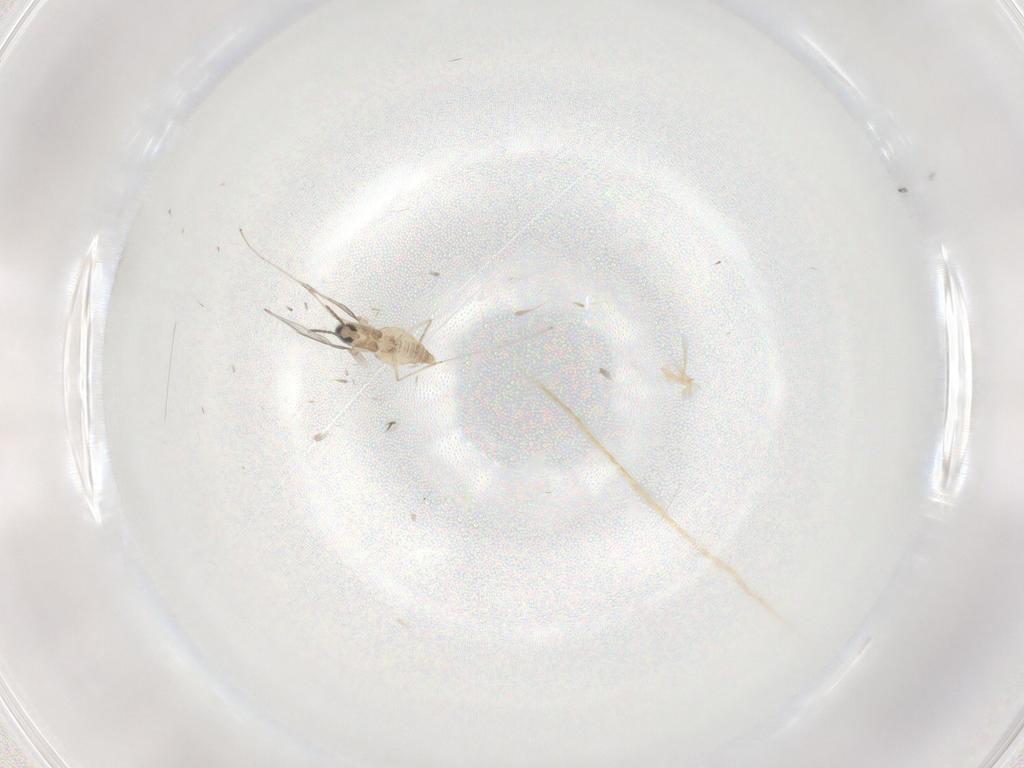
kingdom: Animalia
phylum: Arthropoda
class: Insecta
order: Diptera
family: Cecidomyiidae
